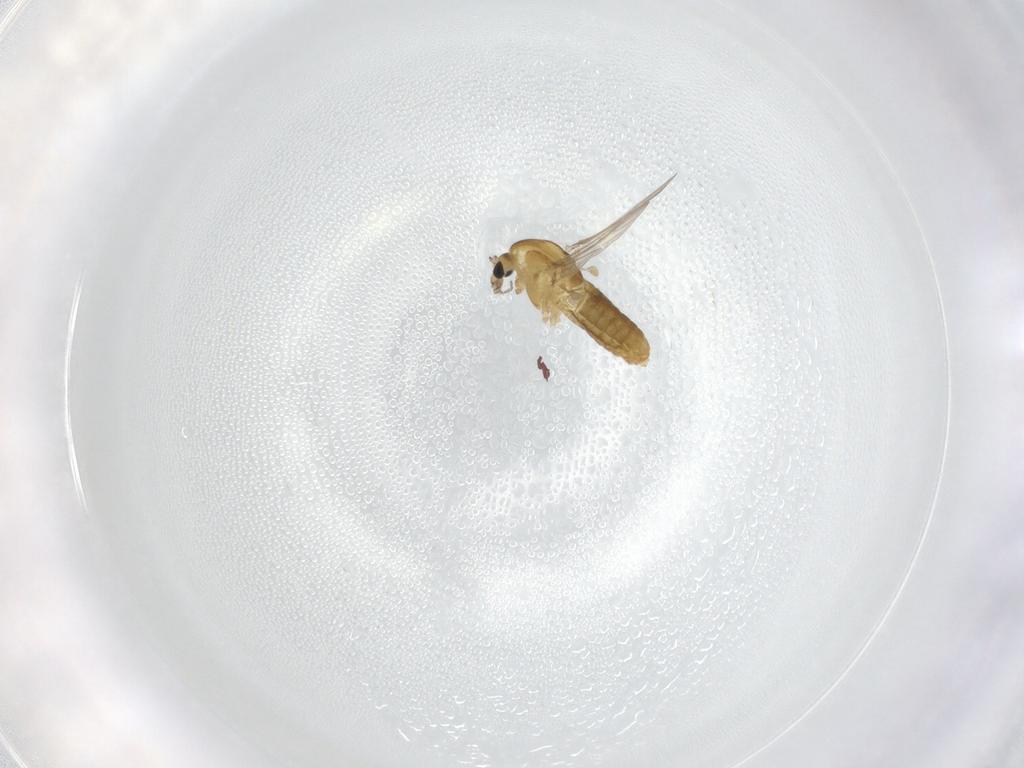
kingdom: Animalia
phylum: Arthropoda
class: Insecta
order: Diptera
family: Chironomidae
